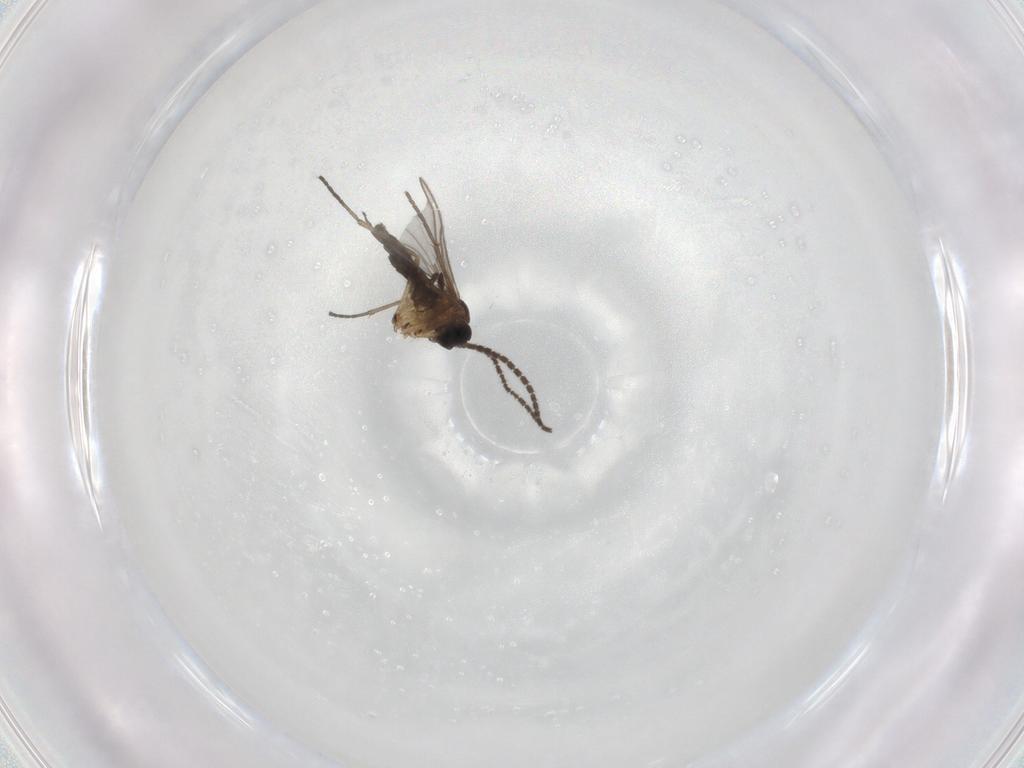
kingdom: Animalia
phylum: Arthropoda
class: Insecta
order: Diptera
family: Sciaridae
